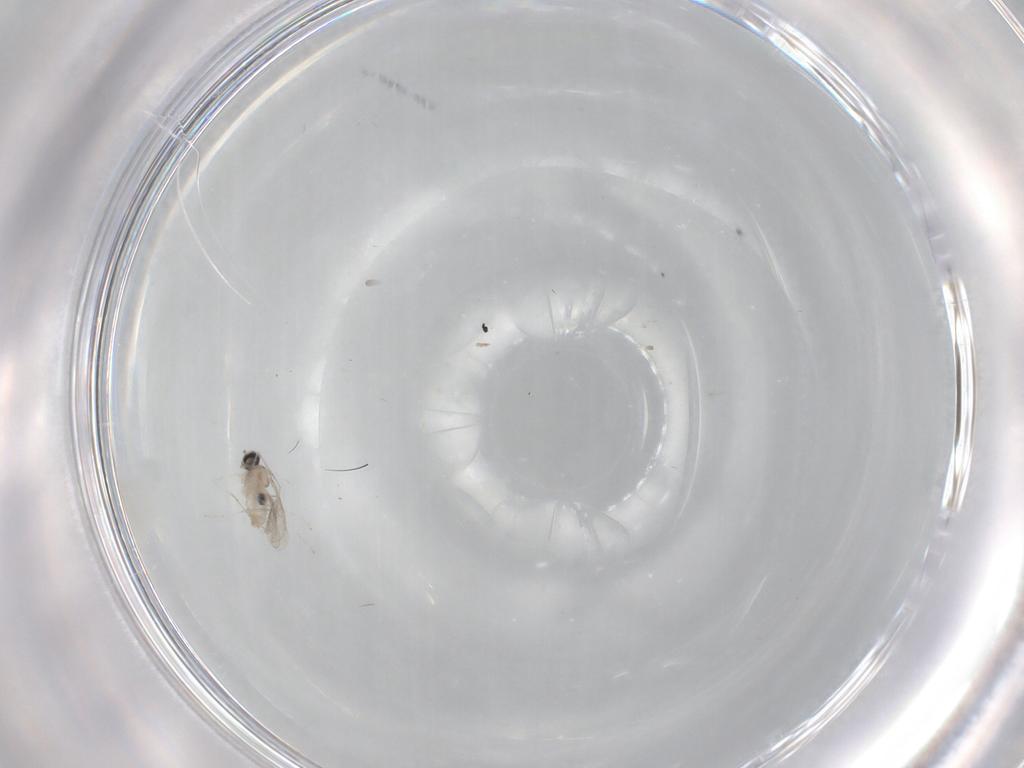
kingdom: Animalia
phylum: Arthropoda
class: Insecta
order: Diptera
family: Cecidomyiidae
